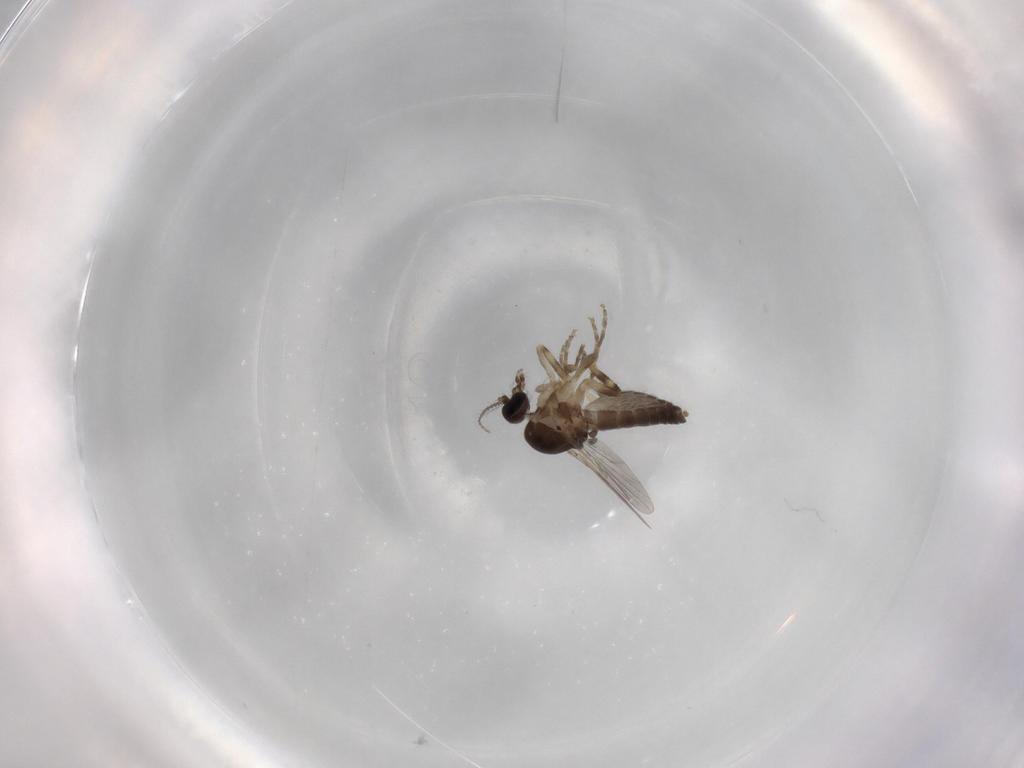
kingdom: Animalia
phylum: Arthropoda
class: Insecta
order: Diptera
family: Ceratopogonidae
